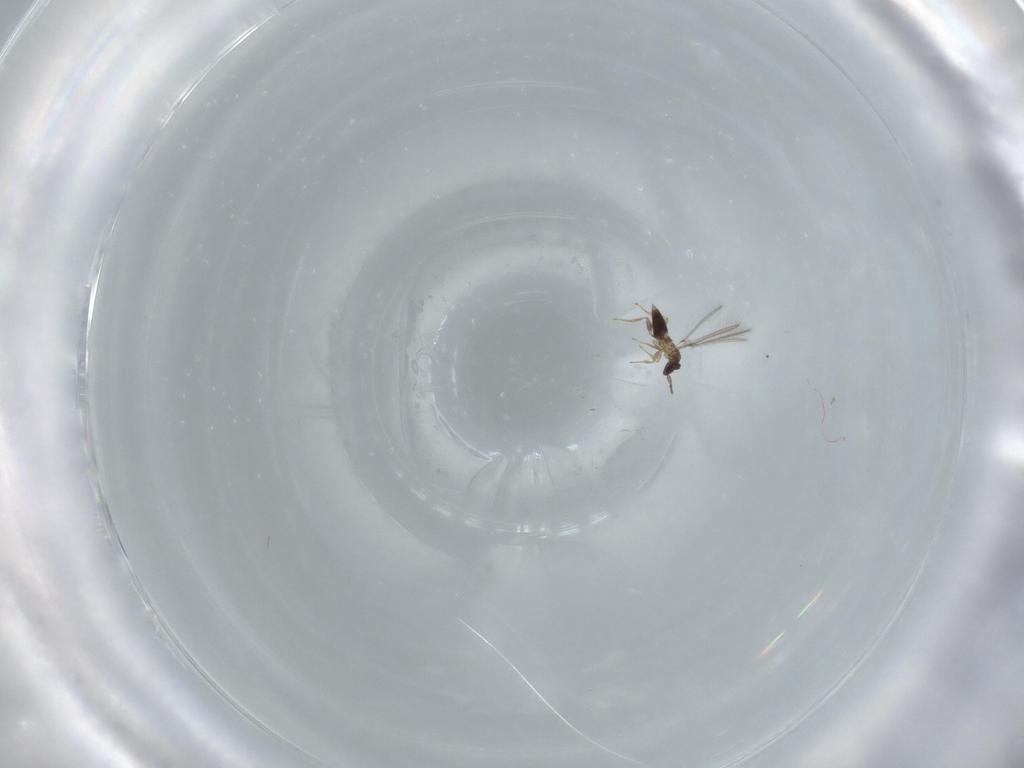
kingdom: Animalia
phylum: Arthropoda
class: Insecta
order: Hymenoptera
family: Mymaridae
